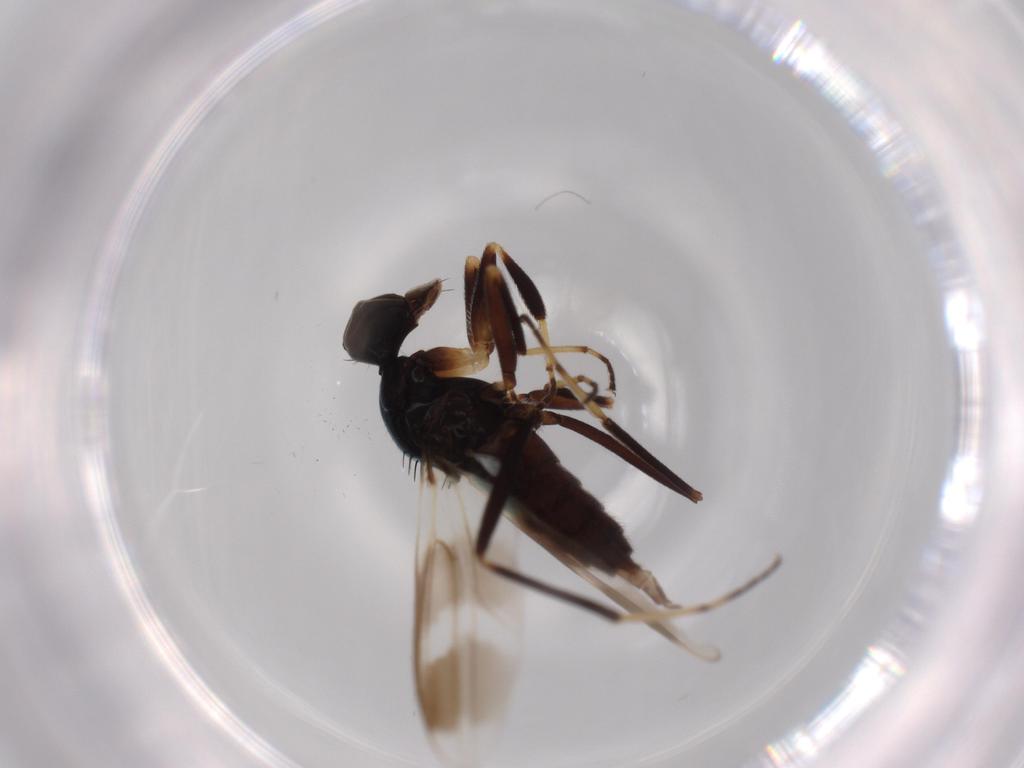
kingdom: Animalia
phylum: Arthropoda
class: Insecta
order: Diptera
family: Hybotidae
